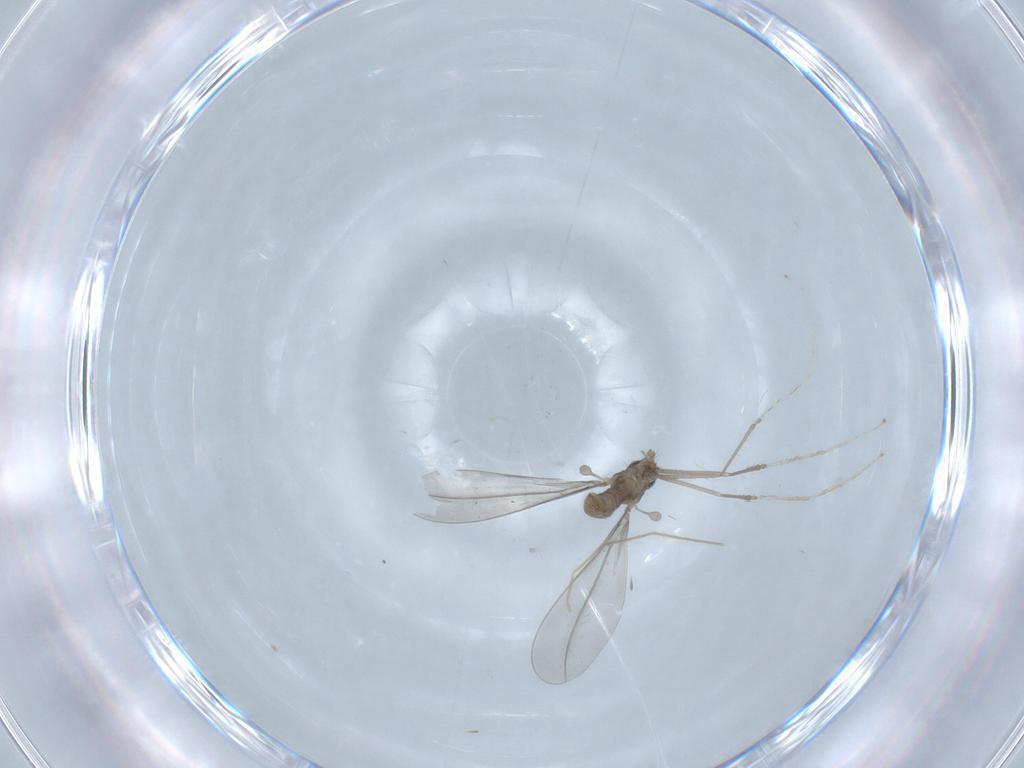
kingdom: Animalia
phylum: Arthropoda
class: Insecta
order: Diptera
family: Cecidomyiidae
